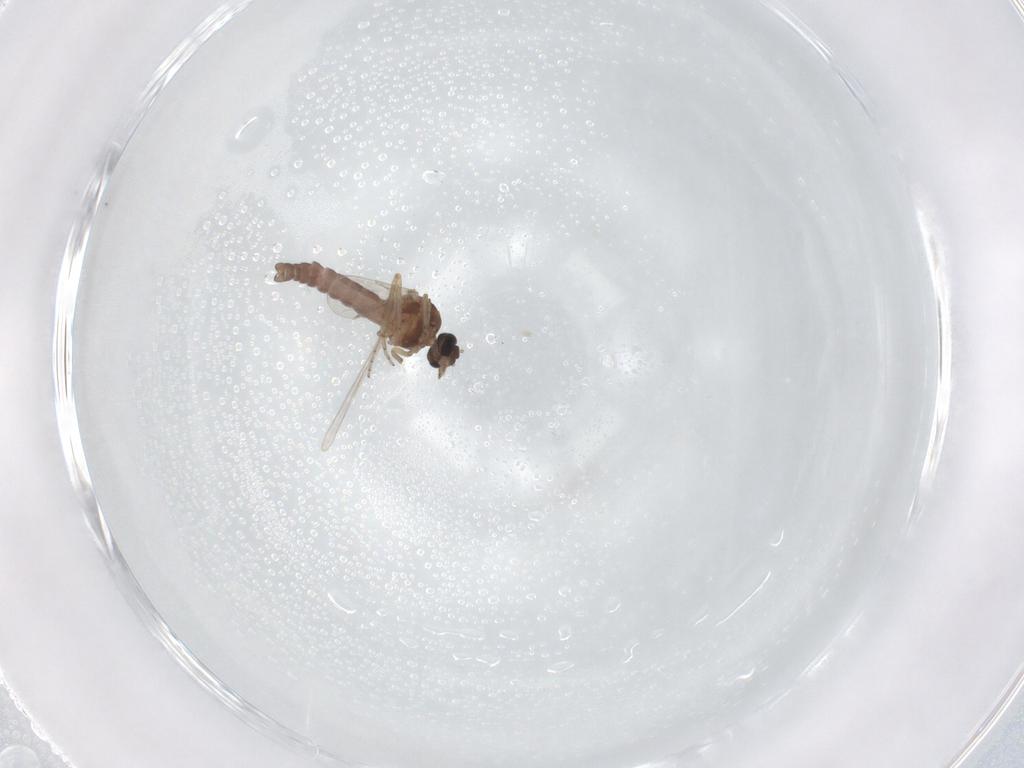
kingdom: Animalia
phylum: Arthropoda
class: Insecta
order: Diptera
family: Ceratopogonidae
